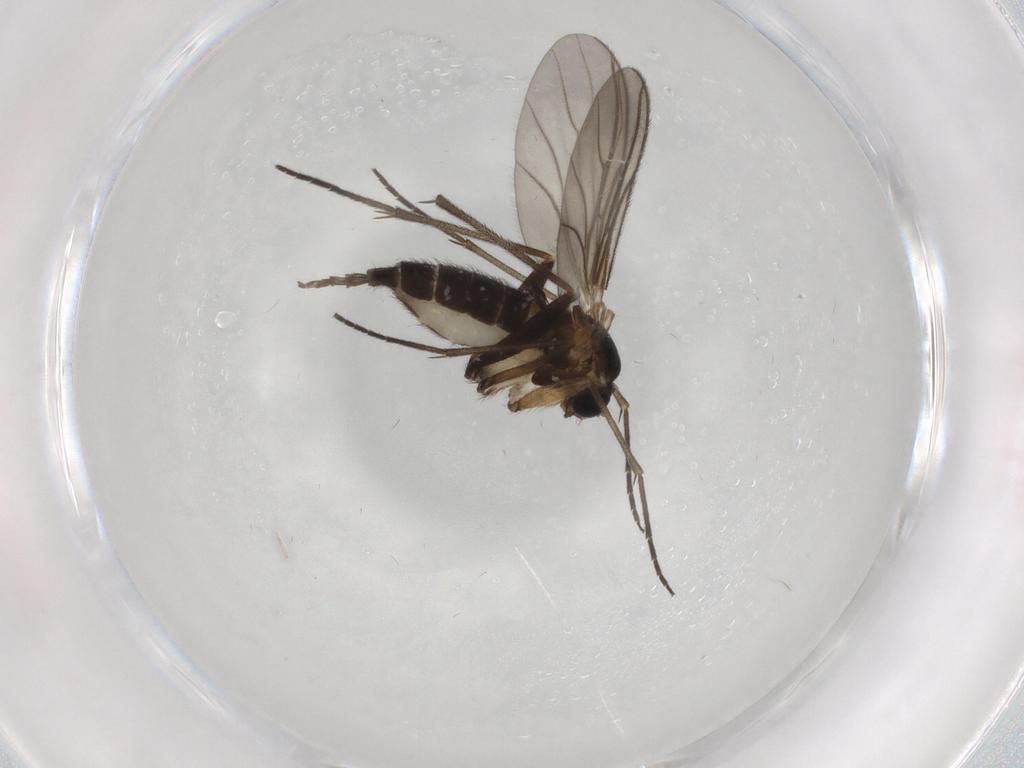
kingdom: Animalia
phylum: Arthropoda
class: Insecta
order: Diptera
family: Sciaridae
